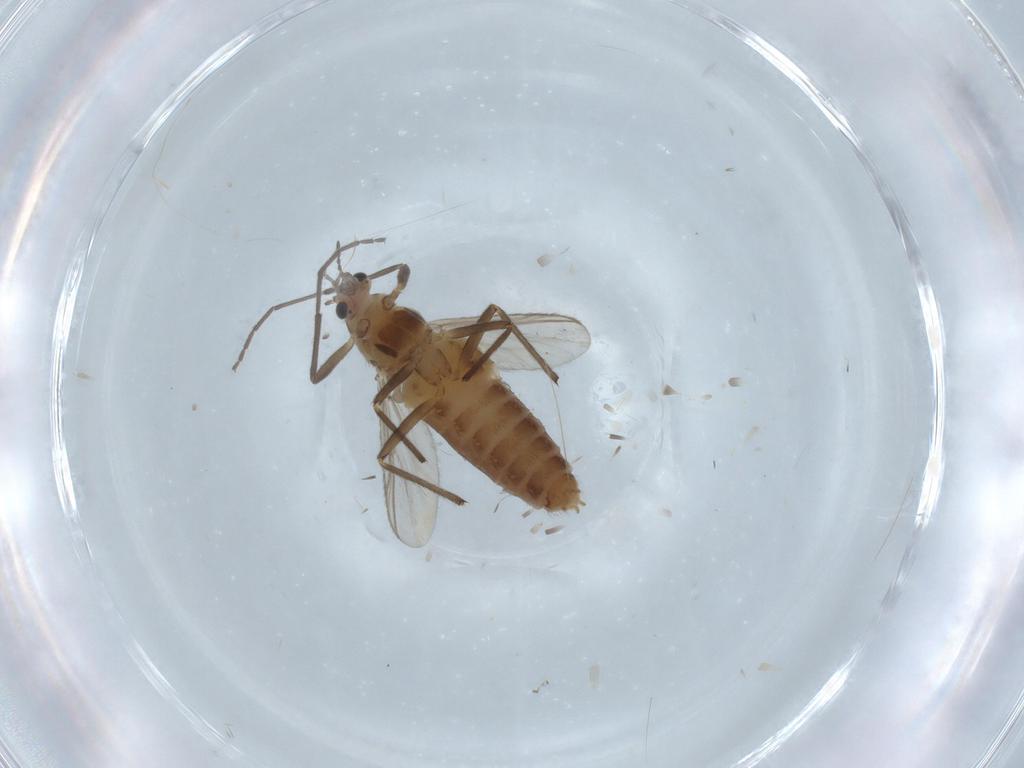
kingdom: Animalia
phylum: Arthropoda
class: Insecta
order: Diptera
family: Chironomidae
